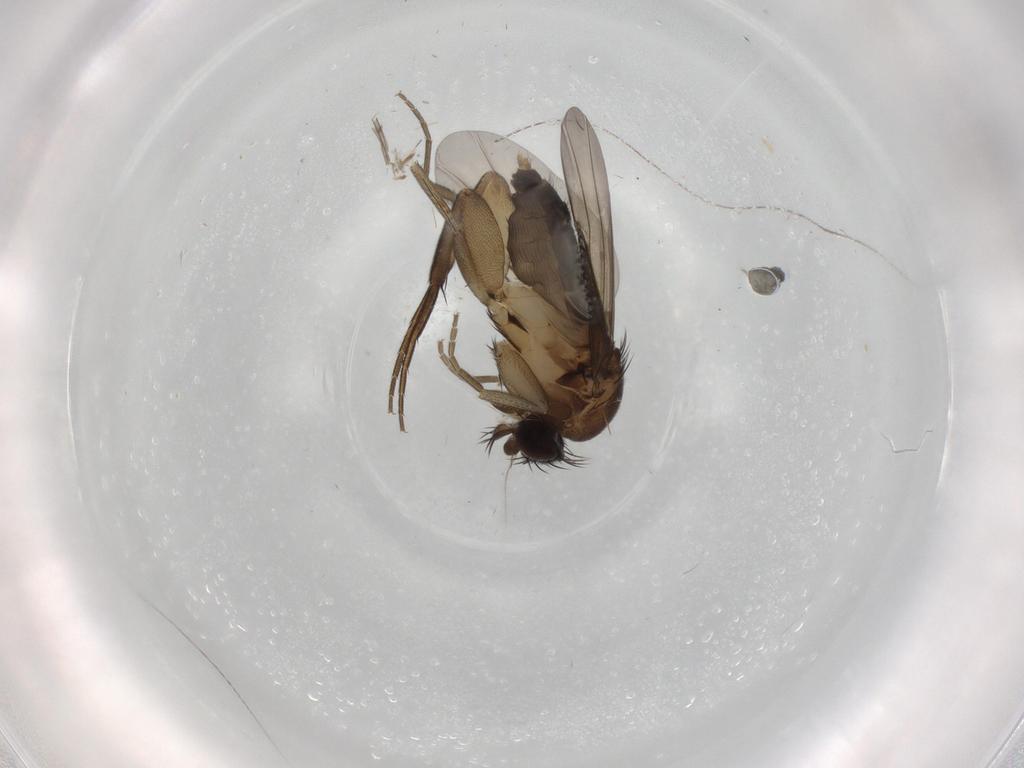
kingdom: Animalia
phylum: Arthropoda
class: Insecta
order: Diptera
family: Phoridae
